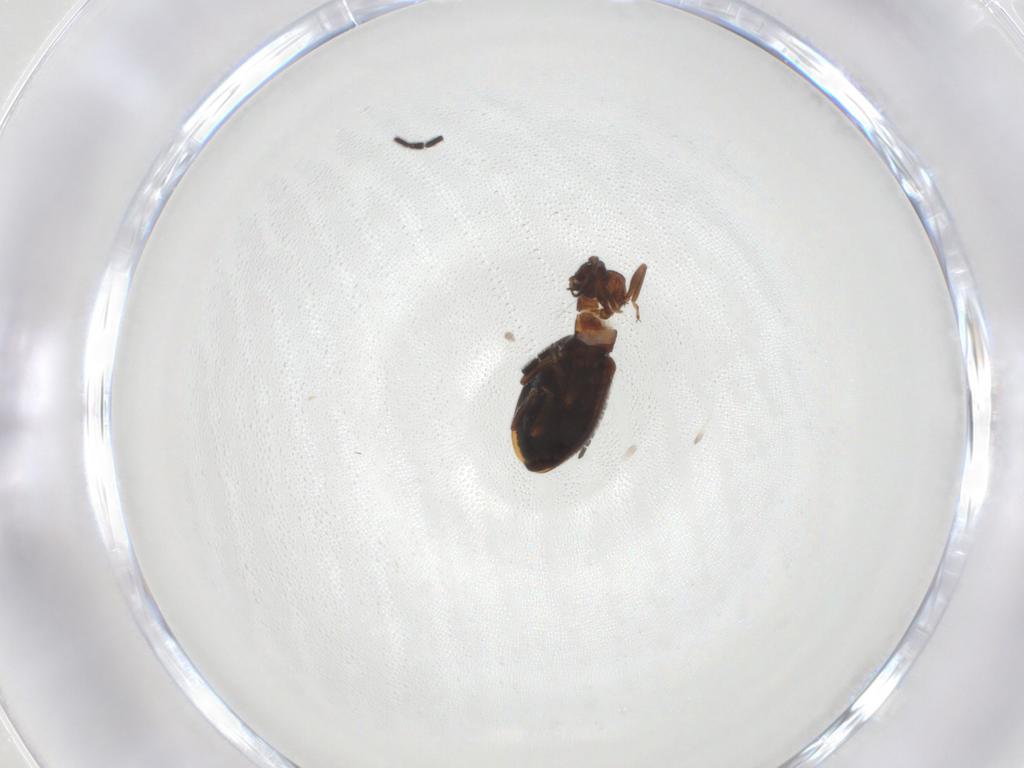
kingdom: Animalia
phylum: Arthropoda
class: Insecta
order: Coleoptera
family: Latridiidae
